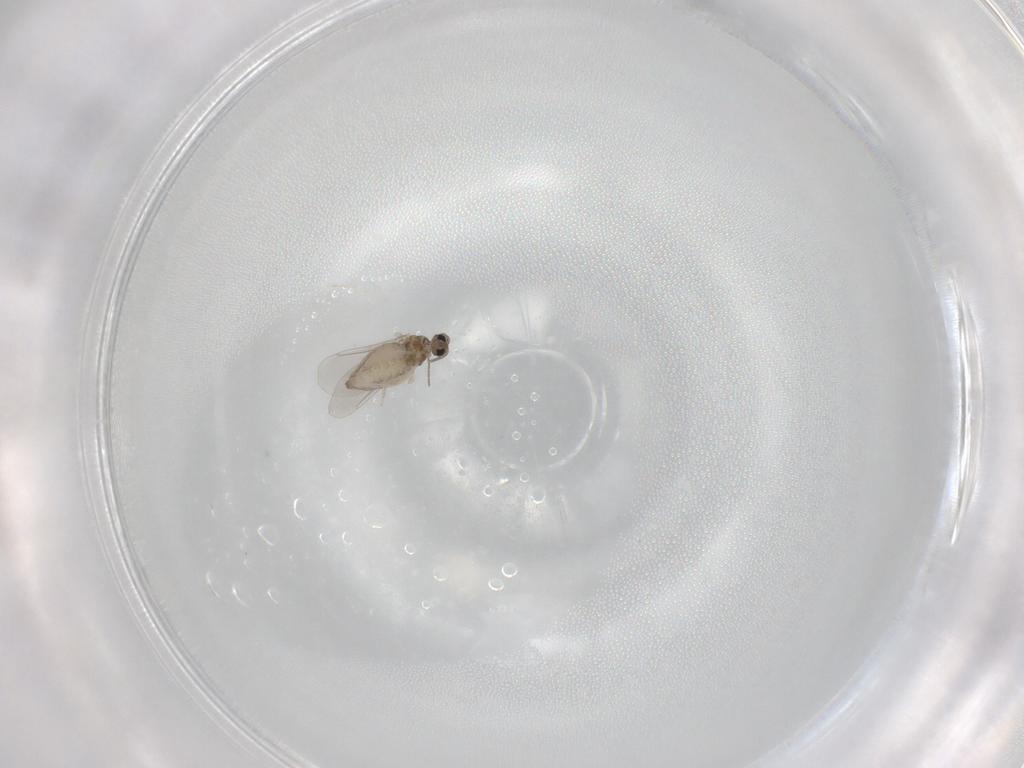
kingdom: Animalia
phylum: Arthropoda
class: Insecta
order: Diptera
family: Cecidomyiidae
